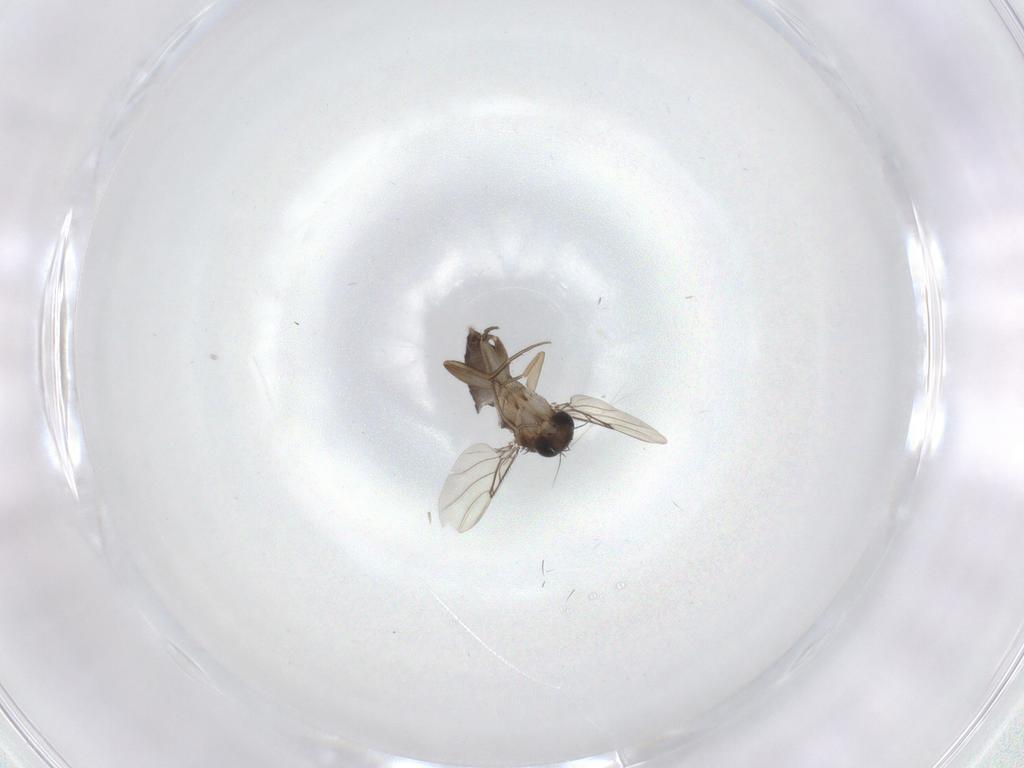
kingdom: Animalia
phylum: Arthropoda
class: Insecta
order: Diptera
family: Phoridae
